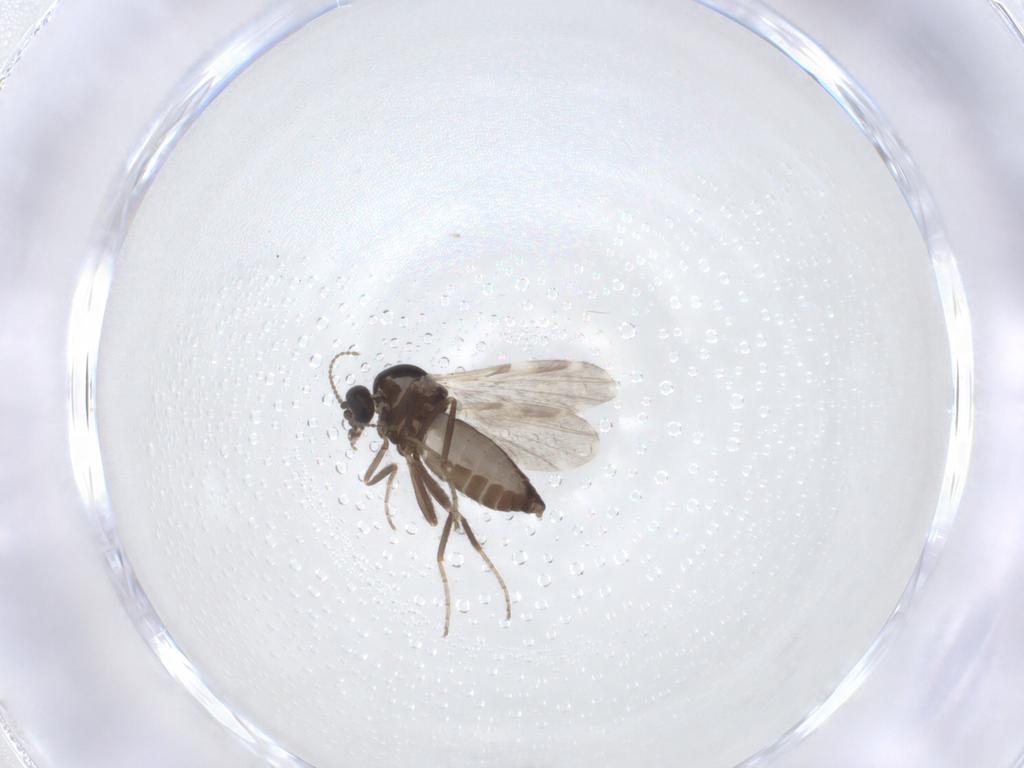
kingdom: Animalia
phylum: Arthropoda
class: Insecta
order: Diptera
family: Ceratopogonidae
